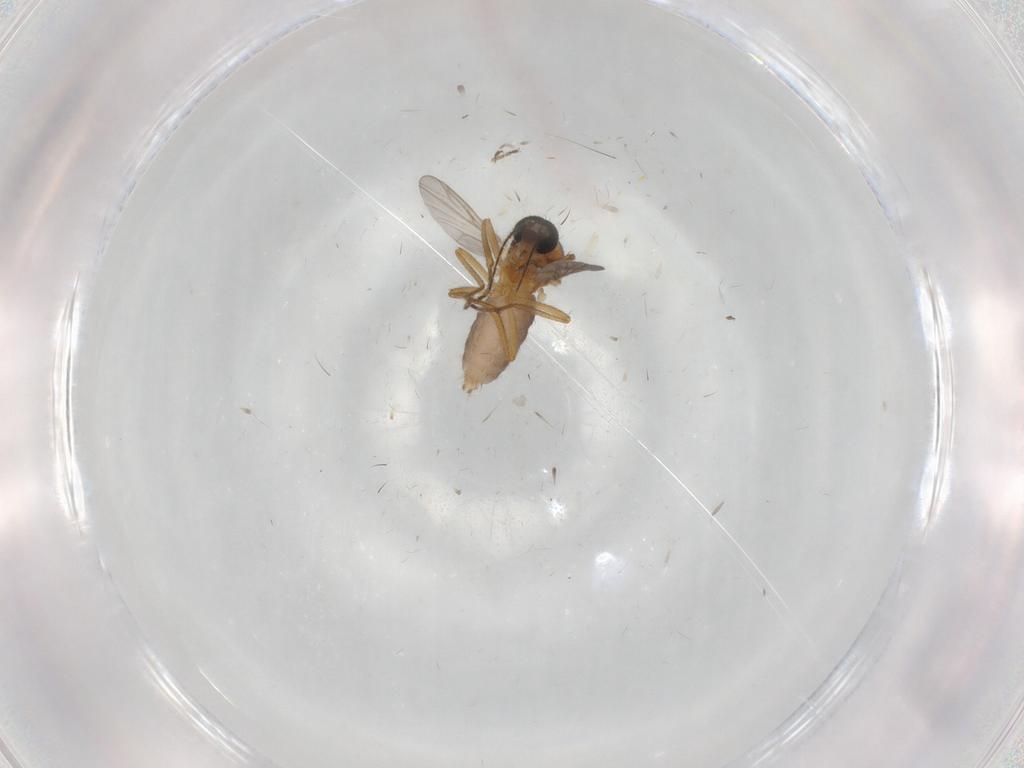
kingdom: Animalia
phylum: Arthropoda
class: Insecta
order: Diptera
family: Ceratopogonidae
